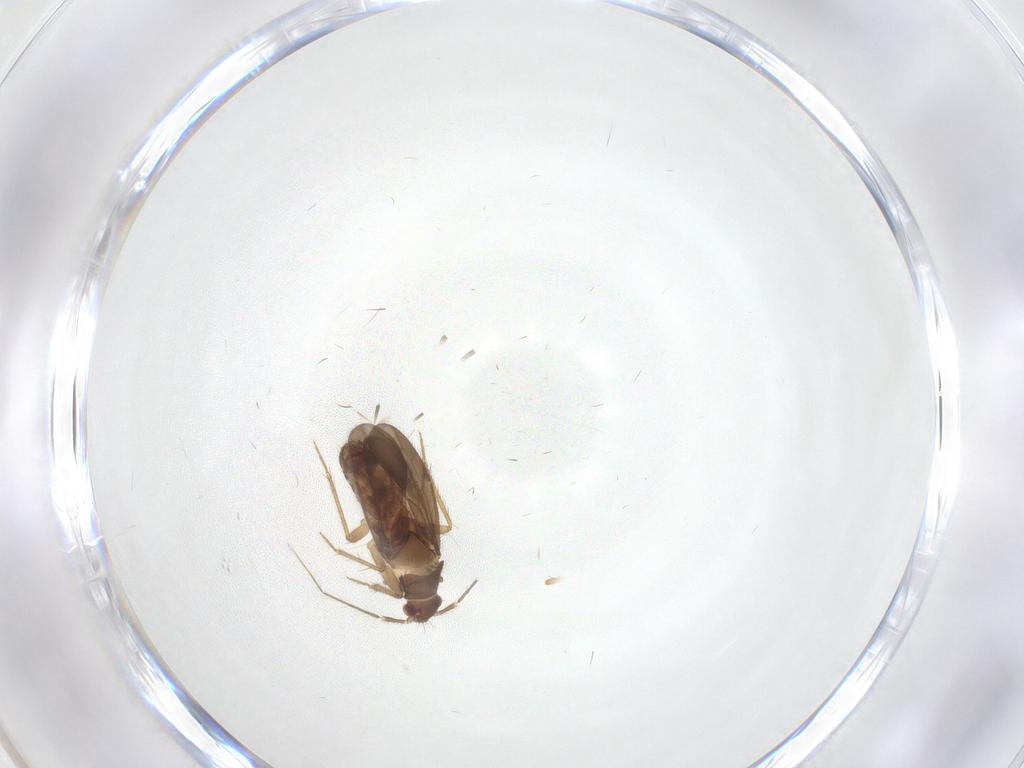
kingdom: Animalia
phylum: Arthropoda
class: Insecta
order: Hemiptera
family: Ceratocombidae
